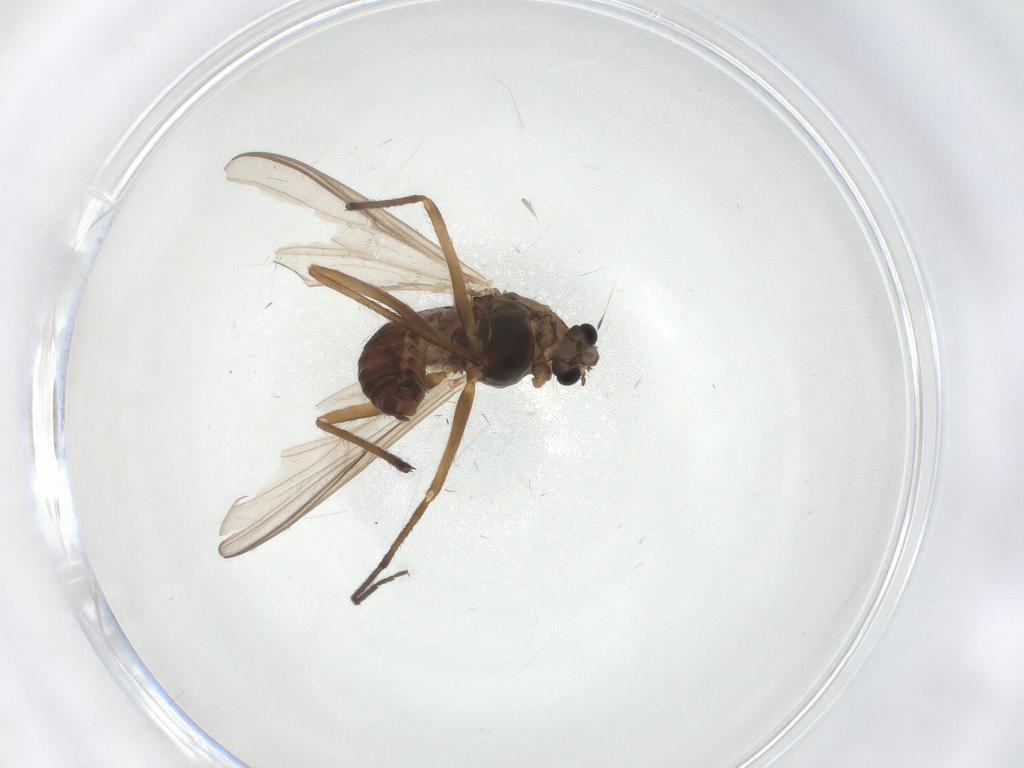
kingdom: Animalia
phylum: Arthropoda
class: Insecta
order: Diptera
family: Chironomidae
